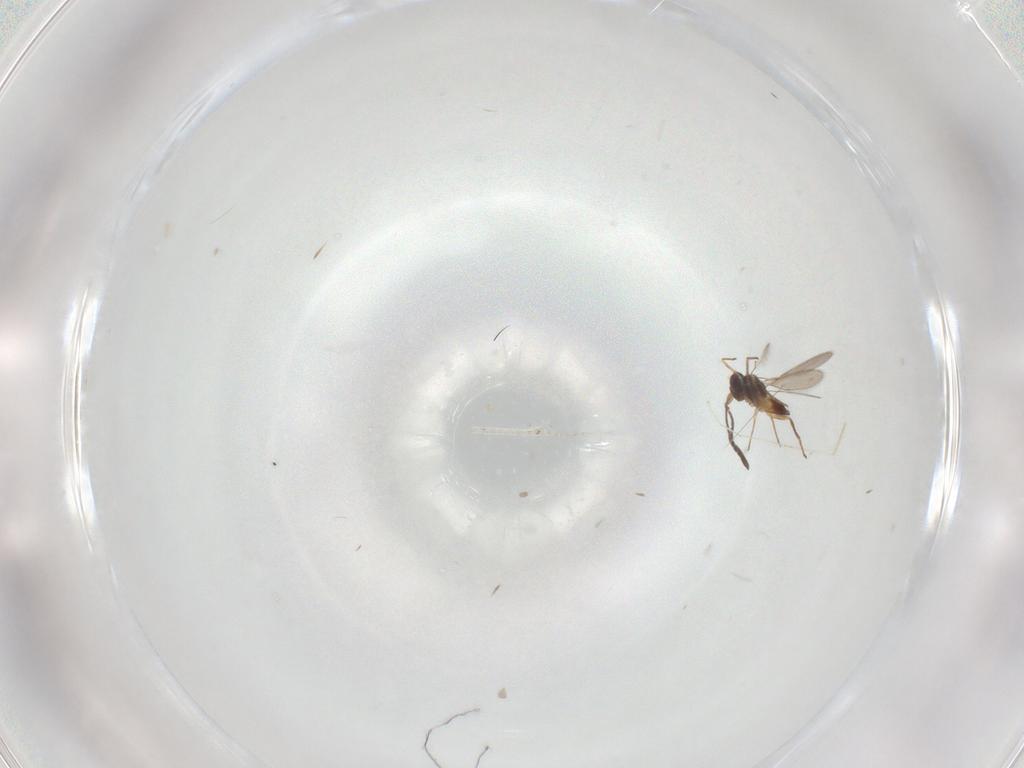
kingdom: Animalia
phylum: Arthropoda
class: Insecta
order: Hymenoptera
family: Mymaridae
